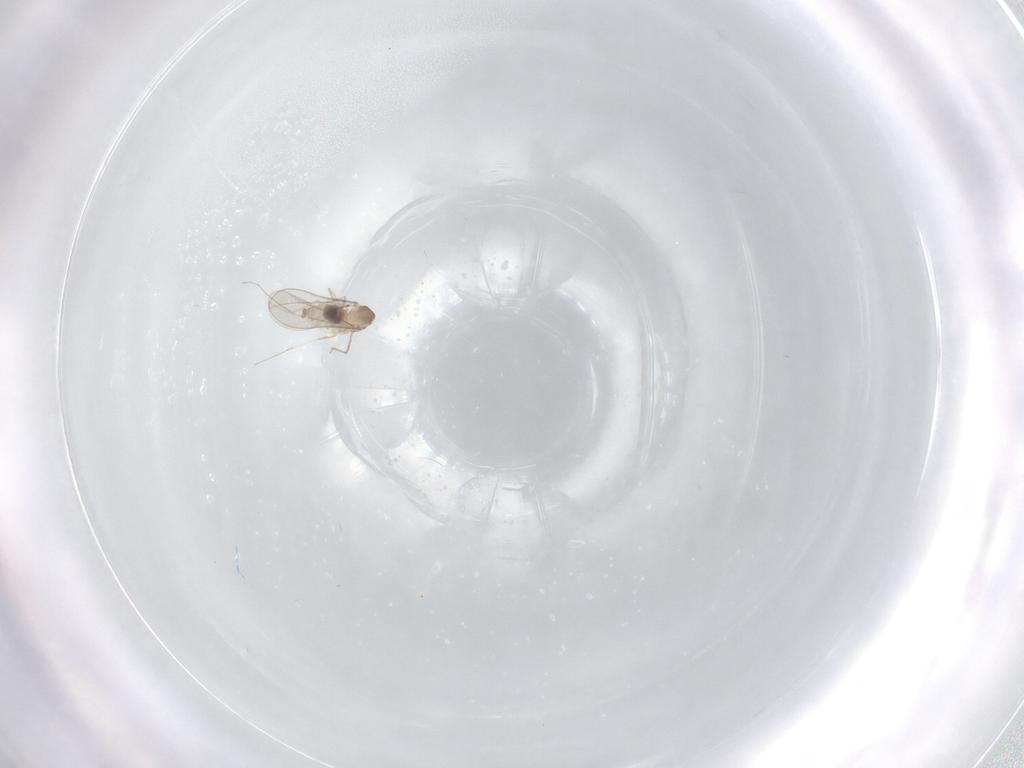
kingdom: Animalia
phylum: Arthropoda
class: Insecta
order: Diptera
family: Cecidomyiidae
